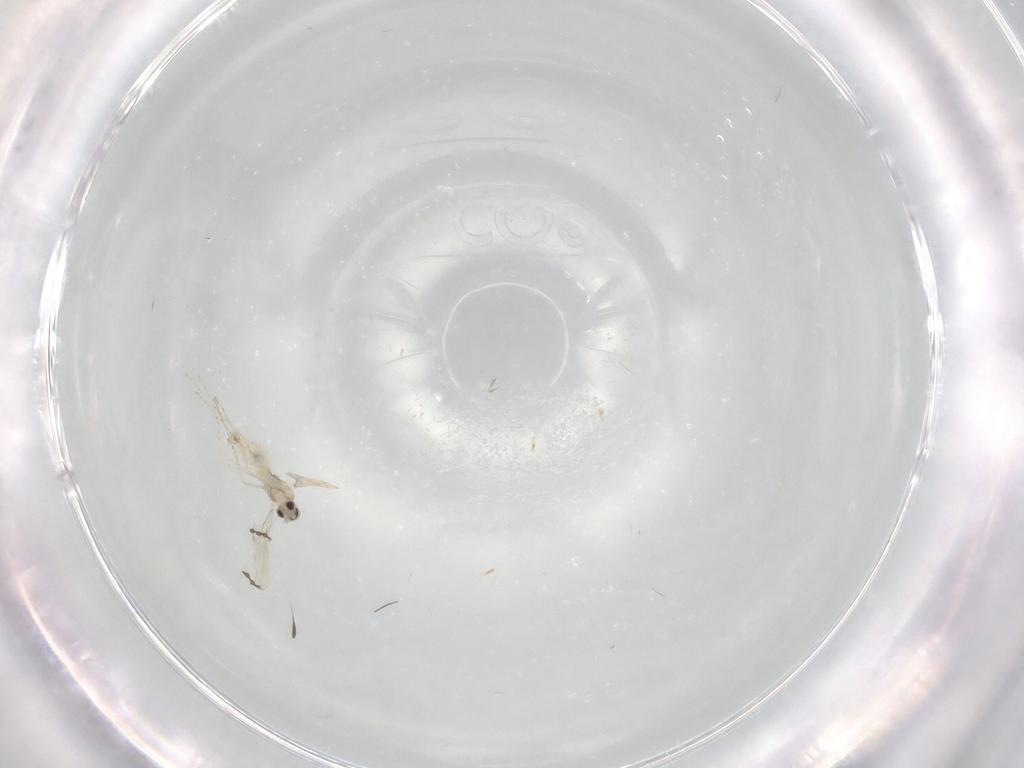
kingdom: Animalia
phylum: Arthropoda
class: Insecta
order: Diptera
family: Cecidomyiidae
